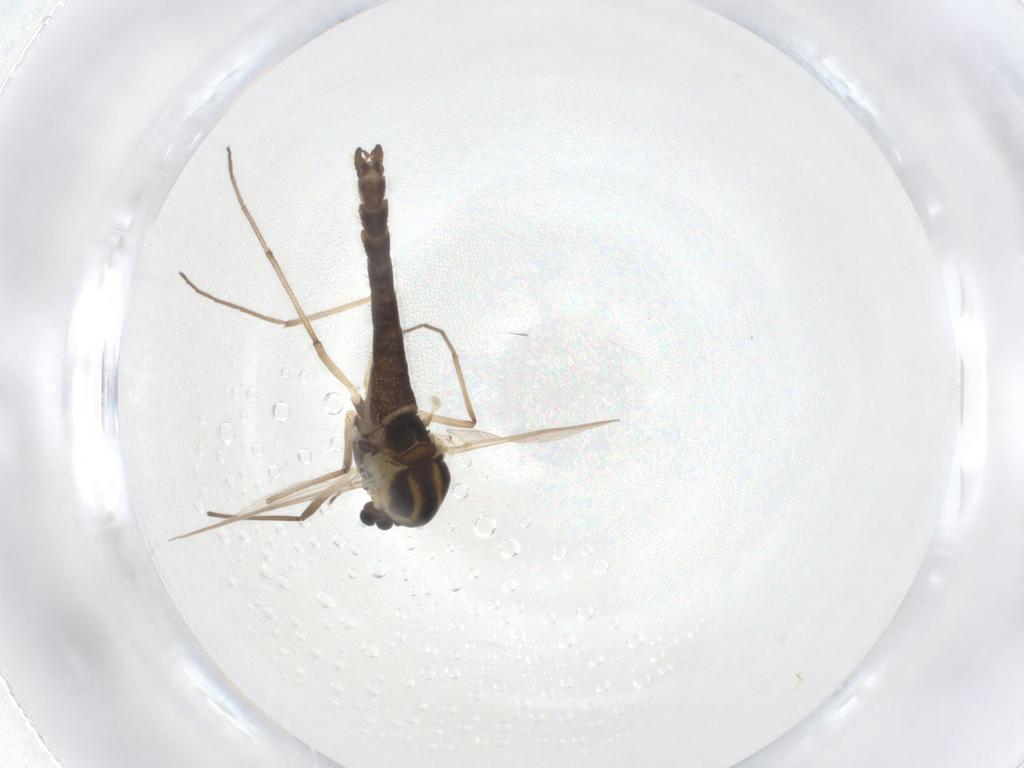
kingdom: Animalia
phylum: Arthropoda
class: Insecta
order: Diptera
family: Chironomidae
